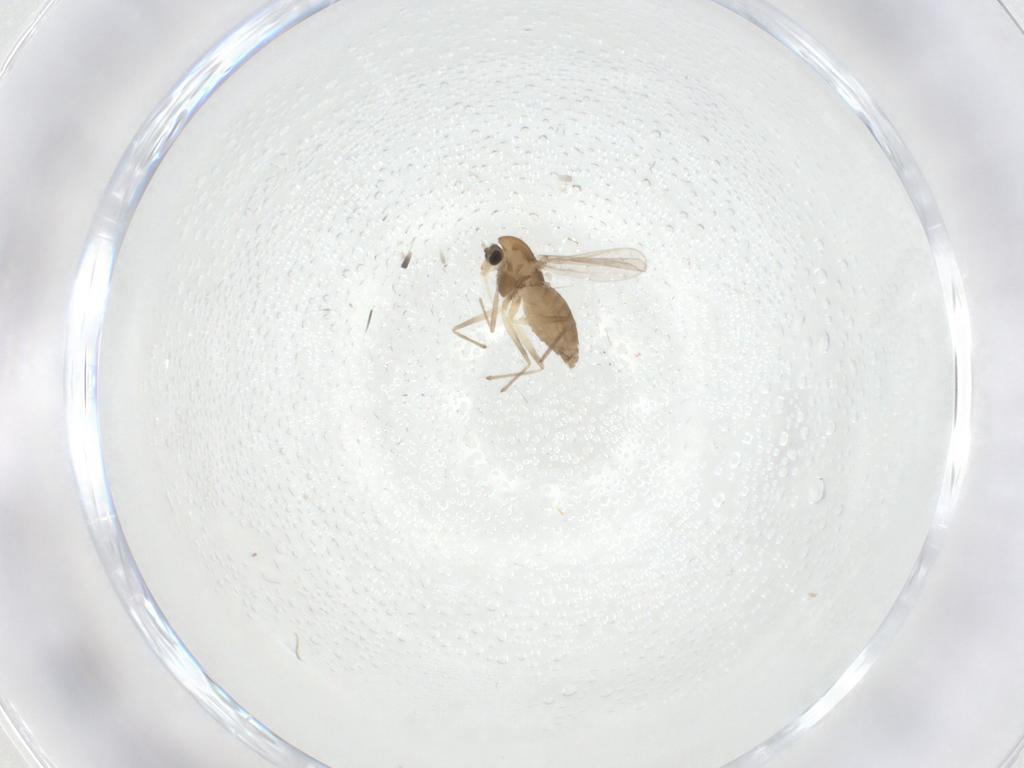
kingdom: Animalia
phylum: Arthropoda
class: Insecta
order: Diptera
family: Chironomidae
